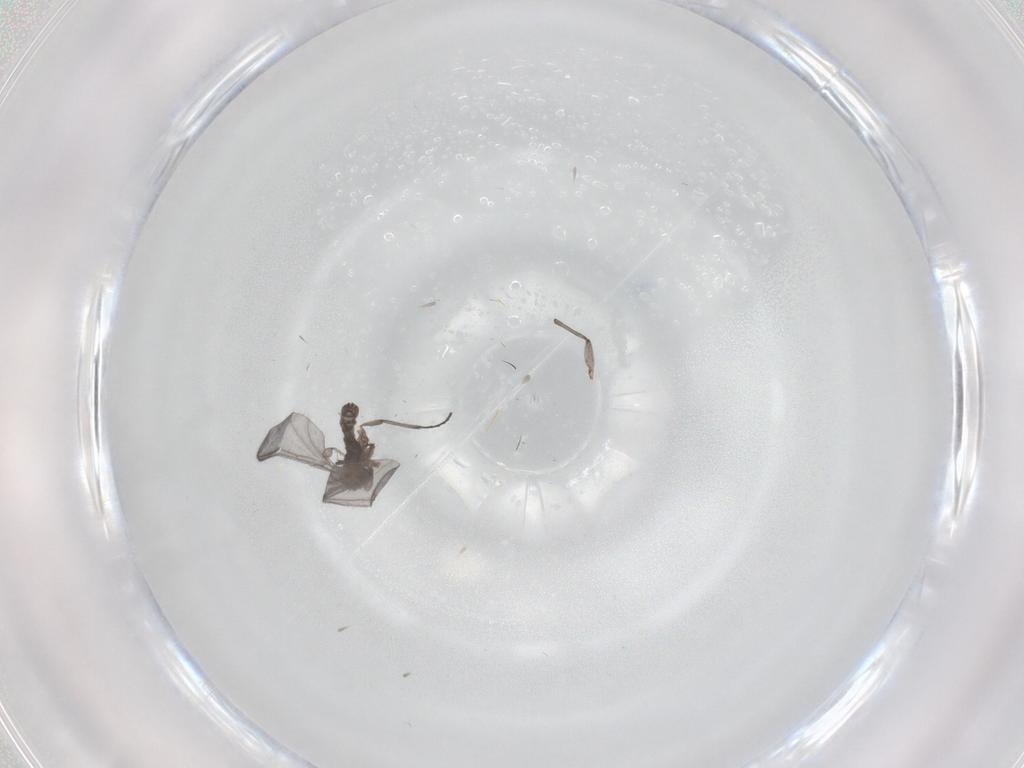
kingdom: Animalia
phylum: Arthropoda
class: Insecta
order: Diptera
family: Sciaridae
